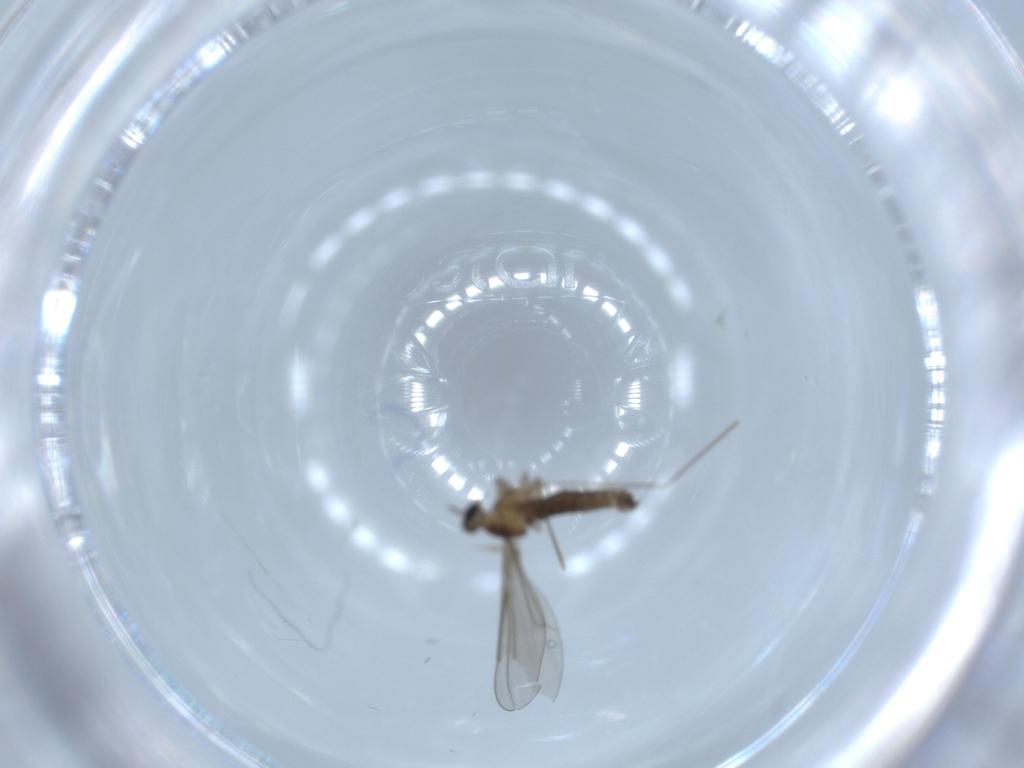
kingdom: Animalia
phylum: Arthropoda
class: Insecta
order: Diptera
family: Cecidomyiidae
